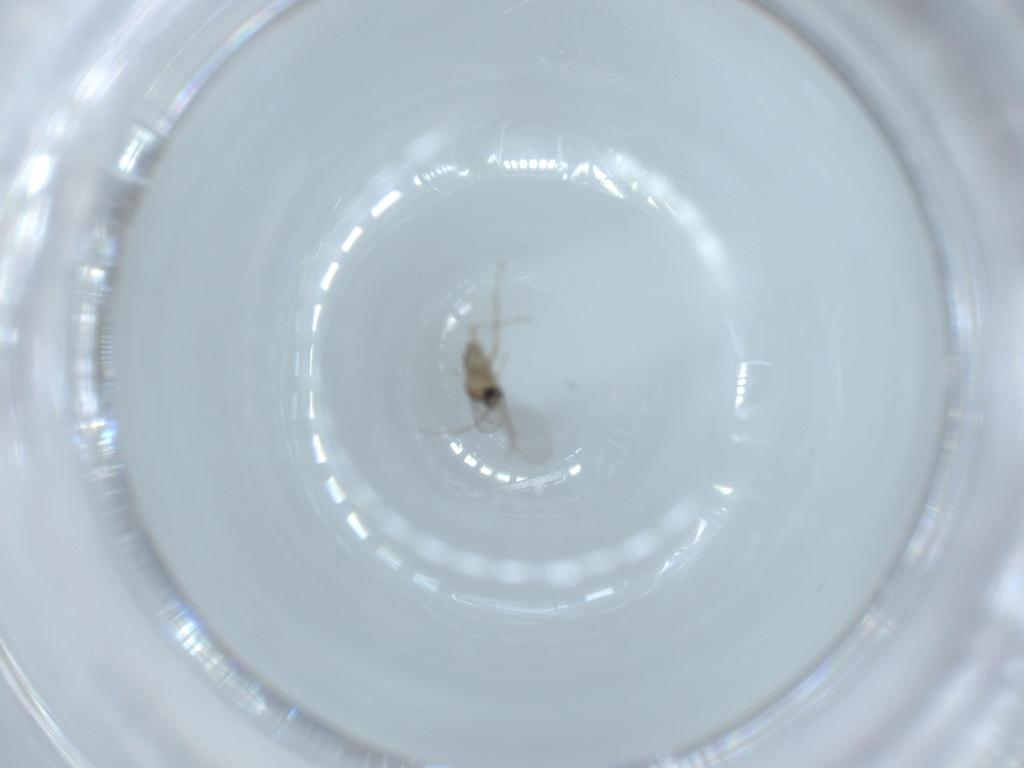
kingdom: Animalia
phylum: Arthropoda
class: Insecta
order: Diptera
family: Cecidomyiidae
